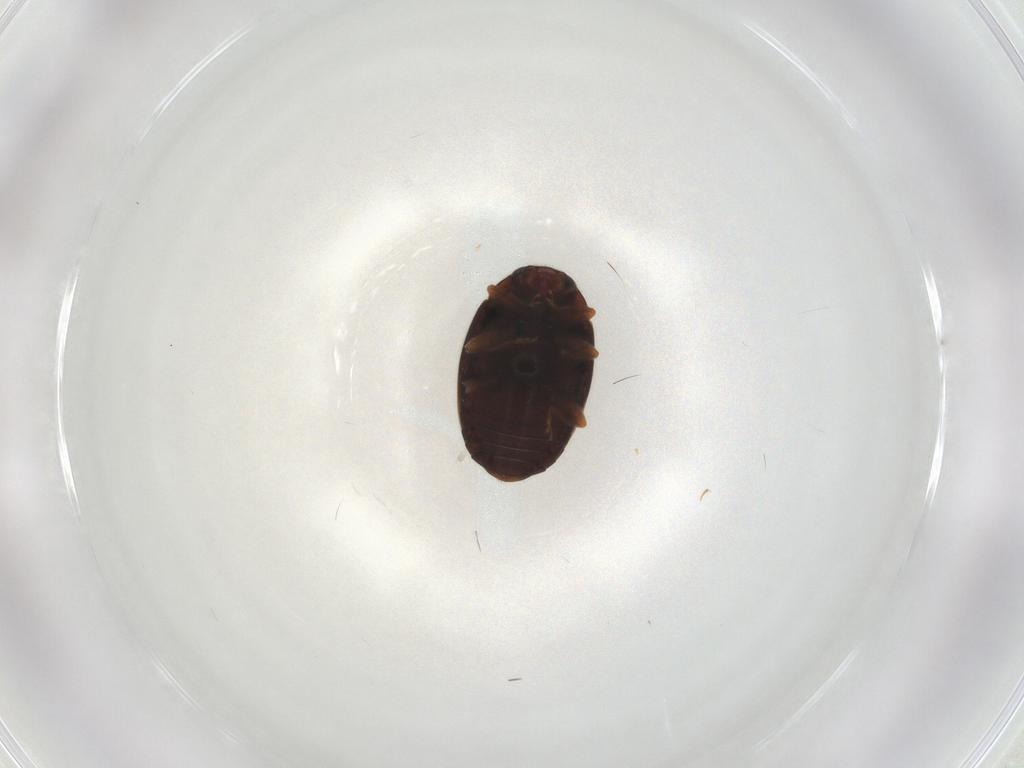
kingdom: Animalia
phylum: Arthropoda
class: Insecta
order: Coleoptera
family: Coccinellidae
